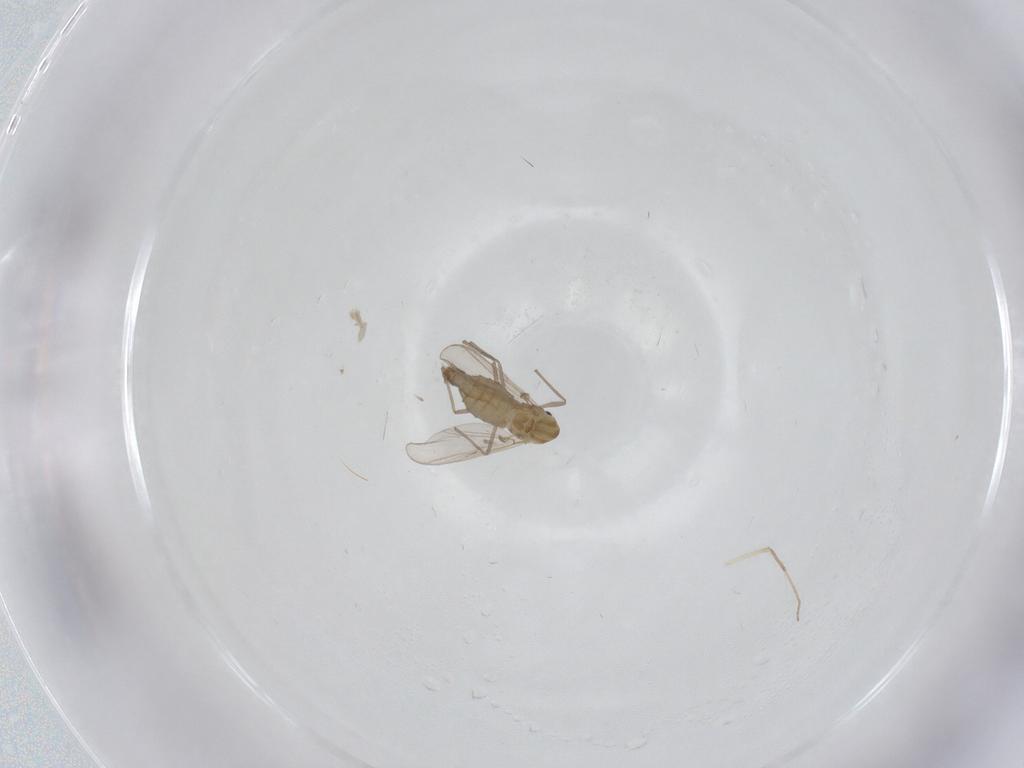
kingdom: Animalia
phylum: Arthropoda
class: Insecta
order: Diptera
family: Chironomidae
